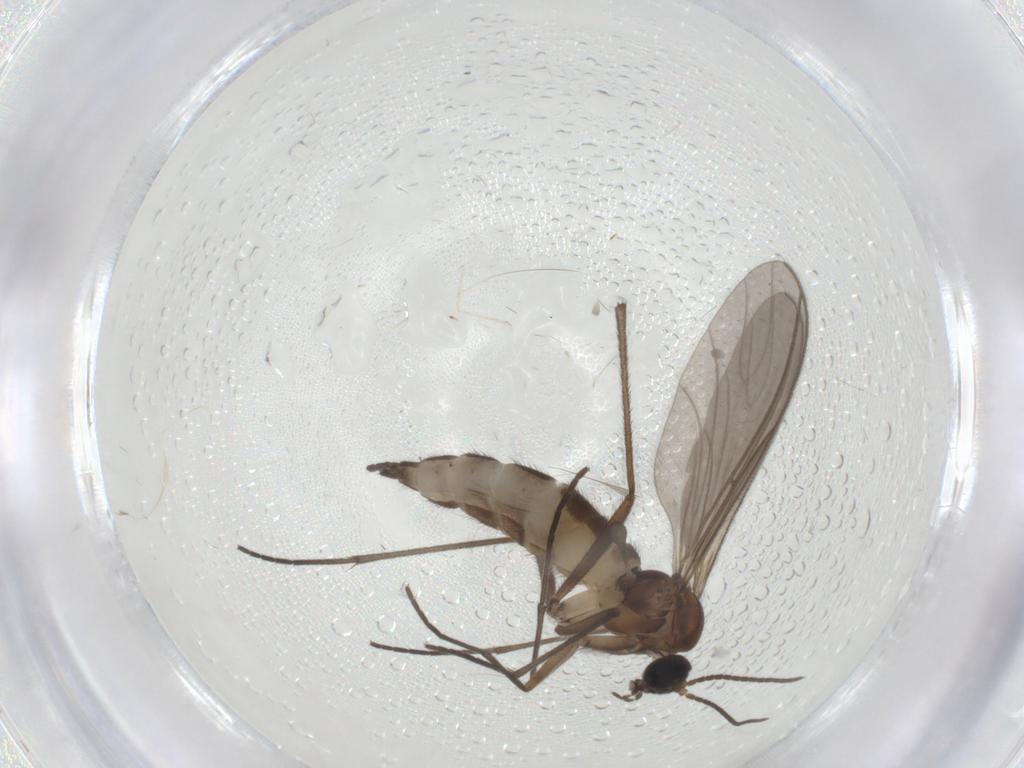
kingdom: Animalia
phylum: Arthropoda
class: Insecta
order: Diptera
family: Sciaridae
